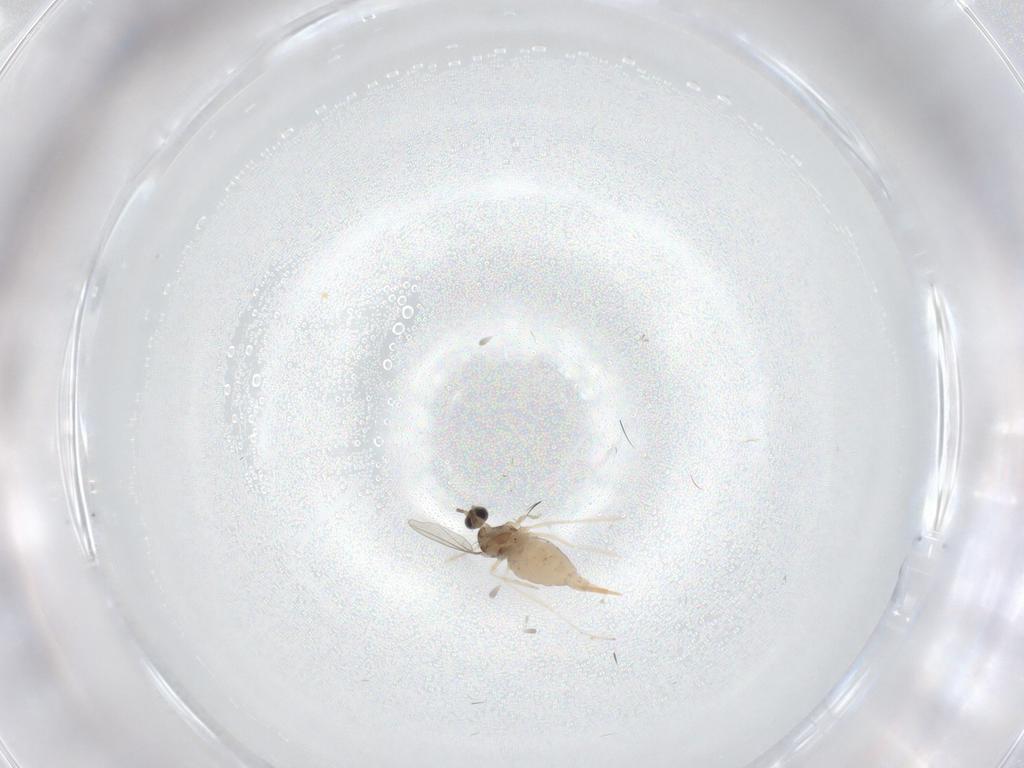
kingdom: Animalia
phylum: Arthropoda
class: Insecta
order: Diptera
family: Cecidomyiidae
